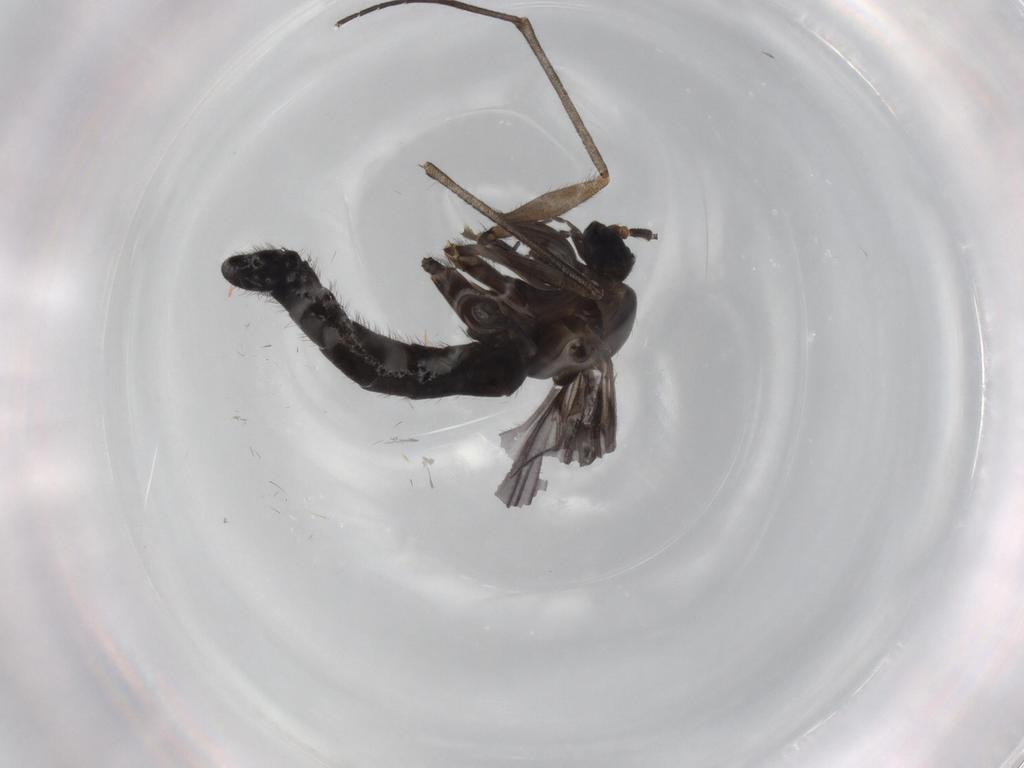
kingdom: Animalia
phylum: Arthropoda
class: Insecta
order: Diptera
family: Phoridae
